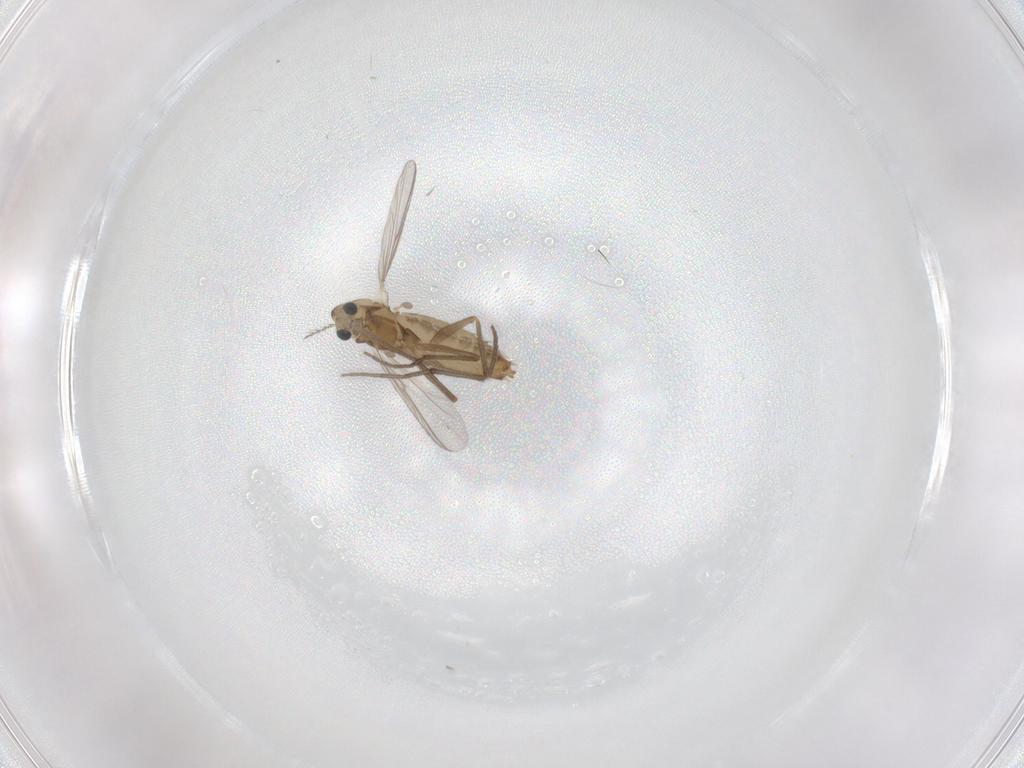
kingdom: Animalia
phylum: Arthropoda
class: Insecta
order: Diptera
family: Chironomidae
